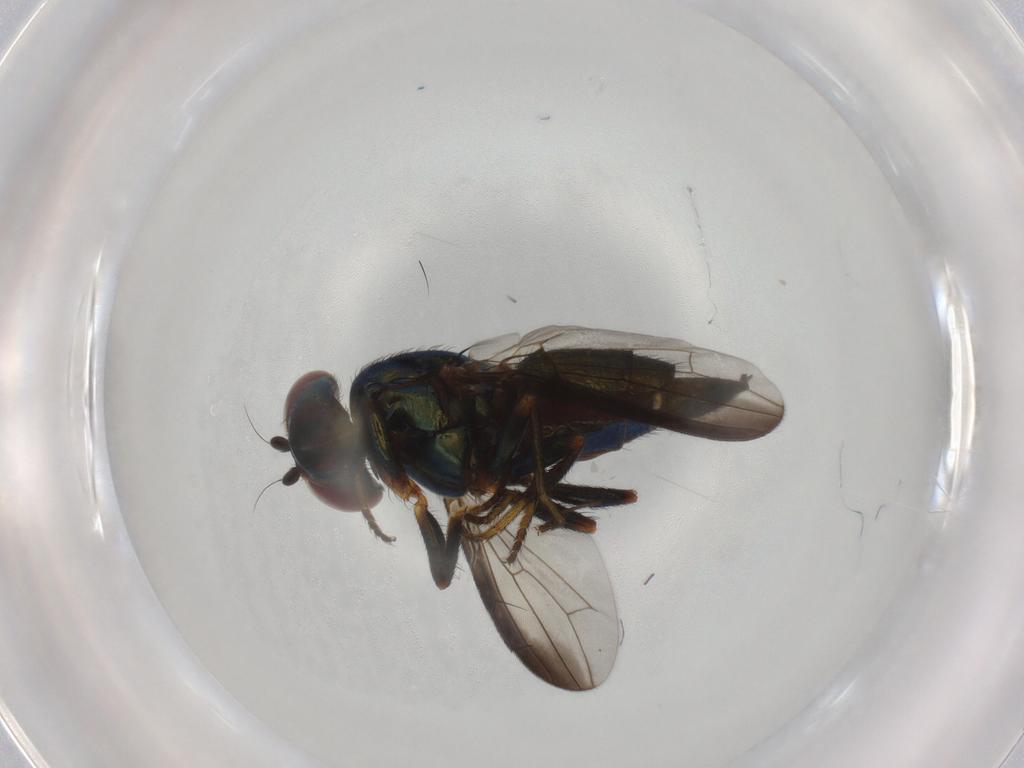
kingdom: Animalia
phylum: Arthropoda
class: Insecta
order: Diptera
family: Ulidiidae
